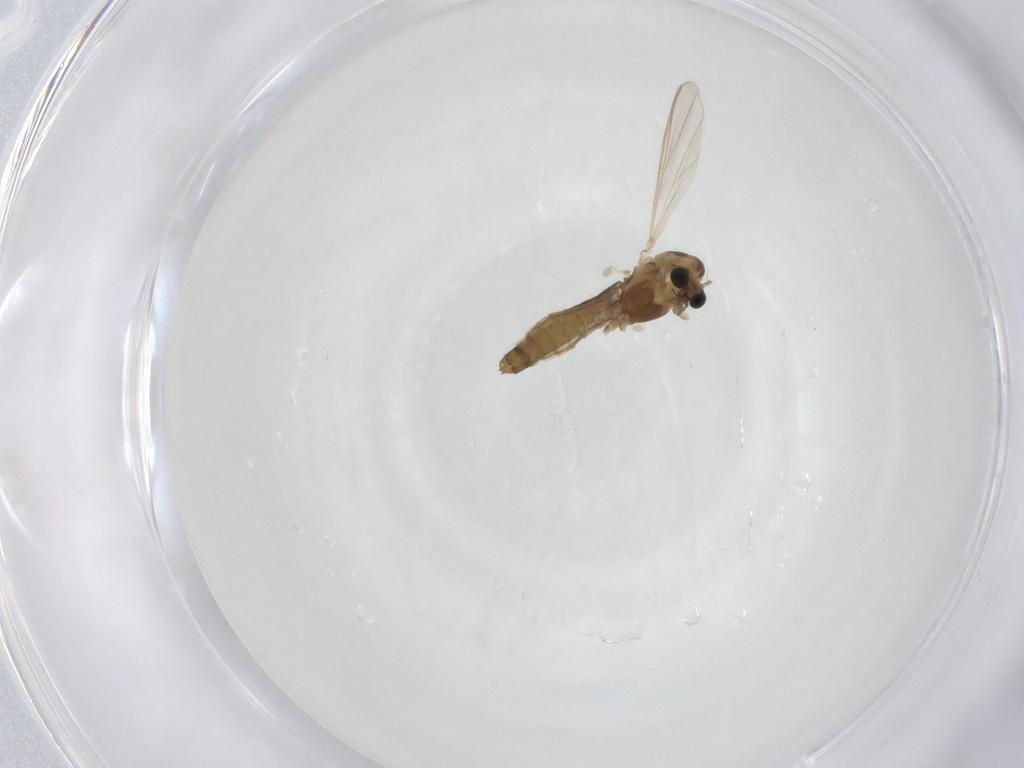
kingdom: Animalia
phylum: Arthropoda
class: Insecta
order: Diptera
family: Chironomidae
